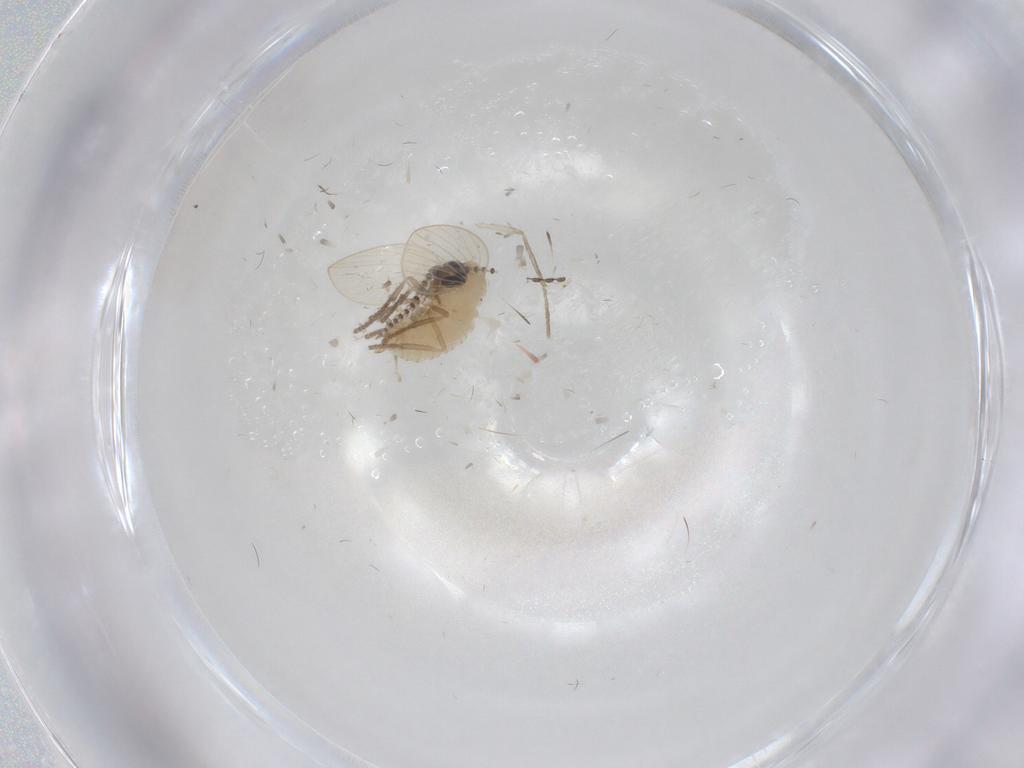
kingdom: Animalia
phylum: Arthropoda
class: Insecta
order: Diptera
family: Psychodidae
